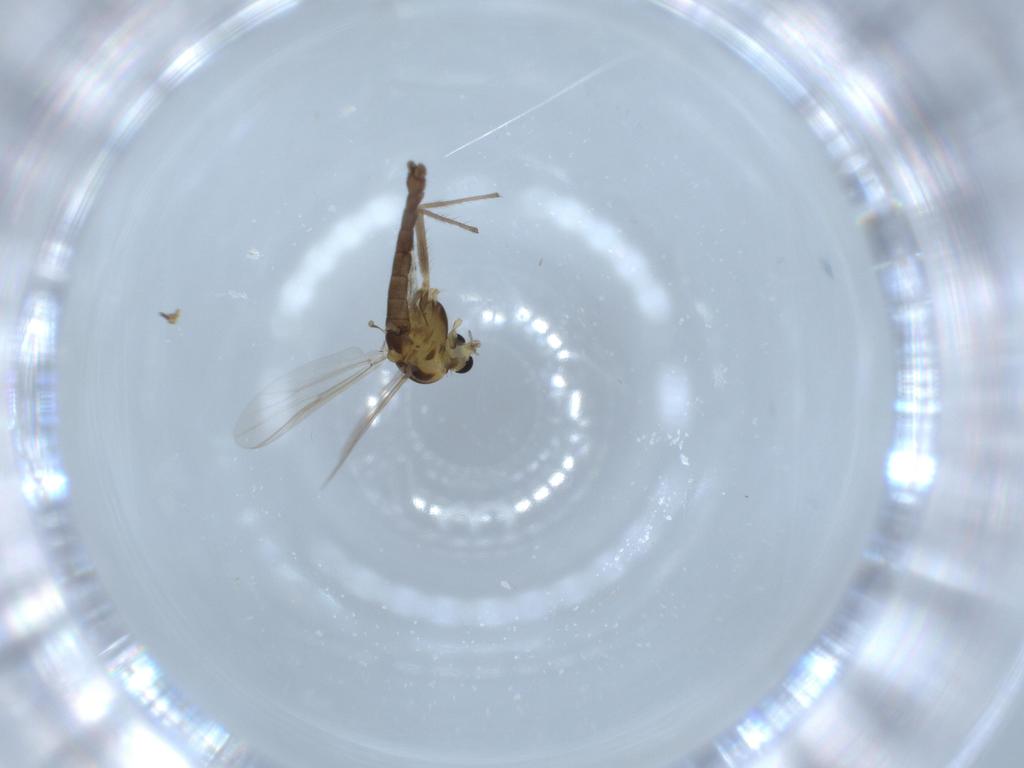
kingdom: Animalia
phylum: Arthropoda
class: Insecta
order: Diptera
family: Chironomidae
